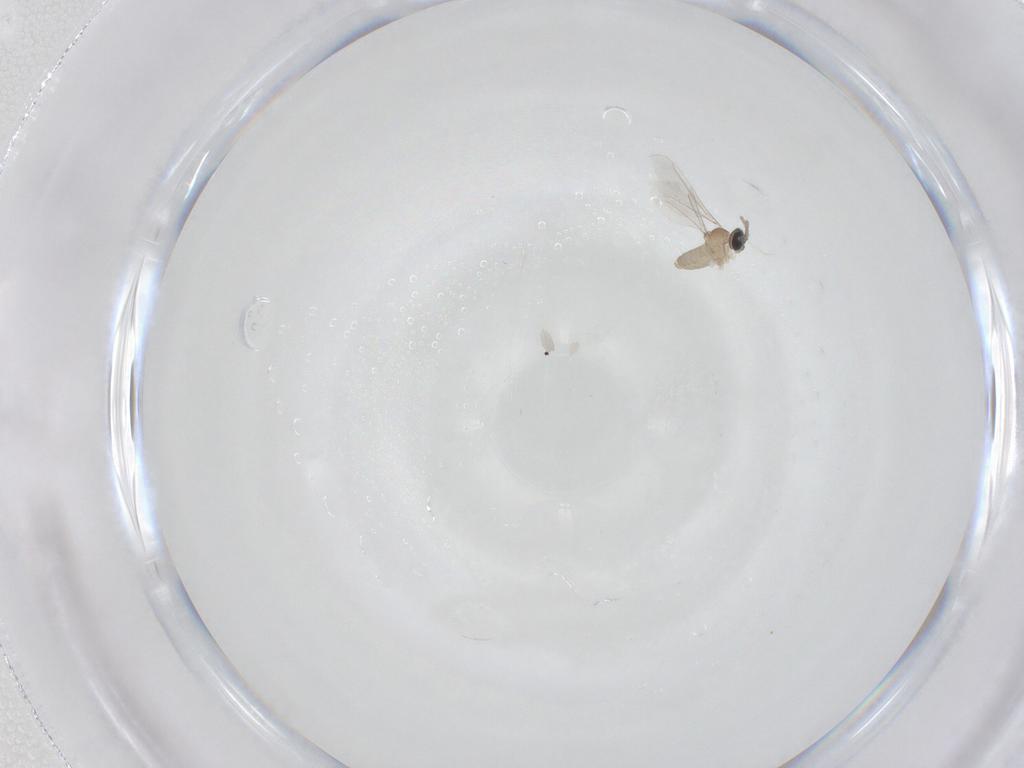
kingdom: Animalia
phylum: Arthropoda
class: Insecta
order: Diptera
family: Cecidomyiidae
